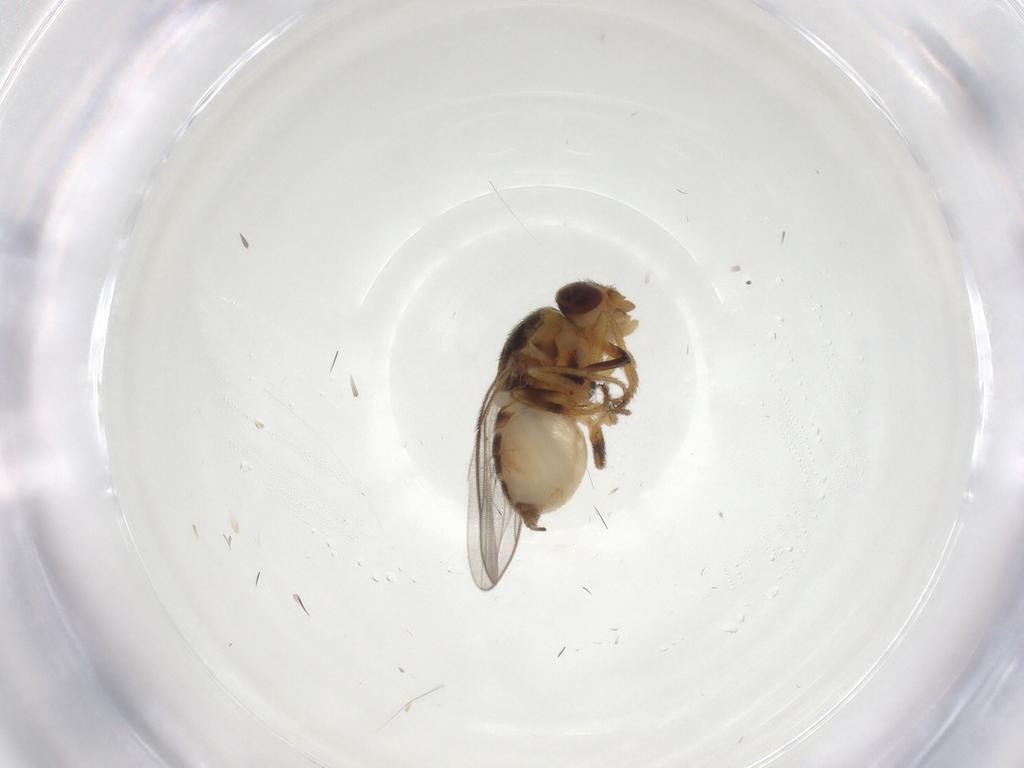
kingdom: Animalia
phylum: Arthropoda
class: Insecta
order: Diptera
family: Chloropidae
